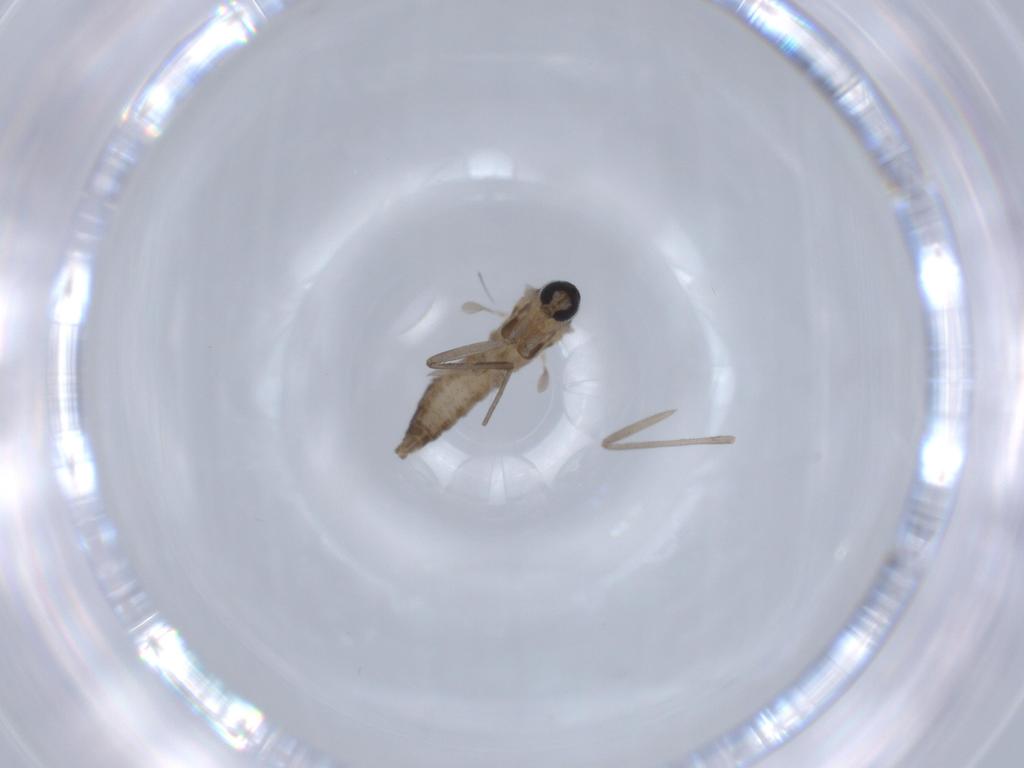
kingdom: Animalia
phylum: Arthropoda
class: Insecta
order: Diptera
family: Chironomidae
